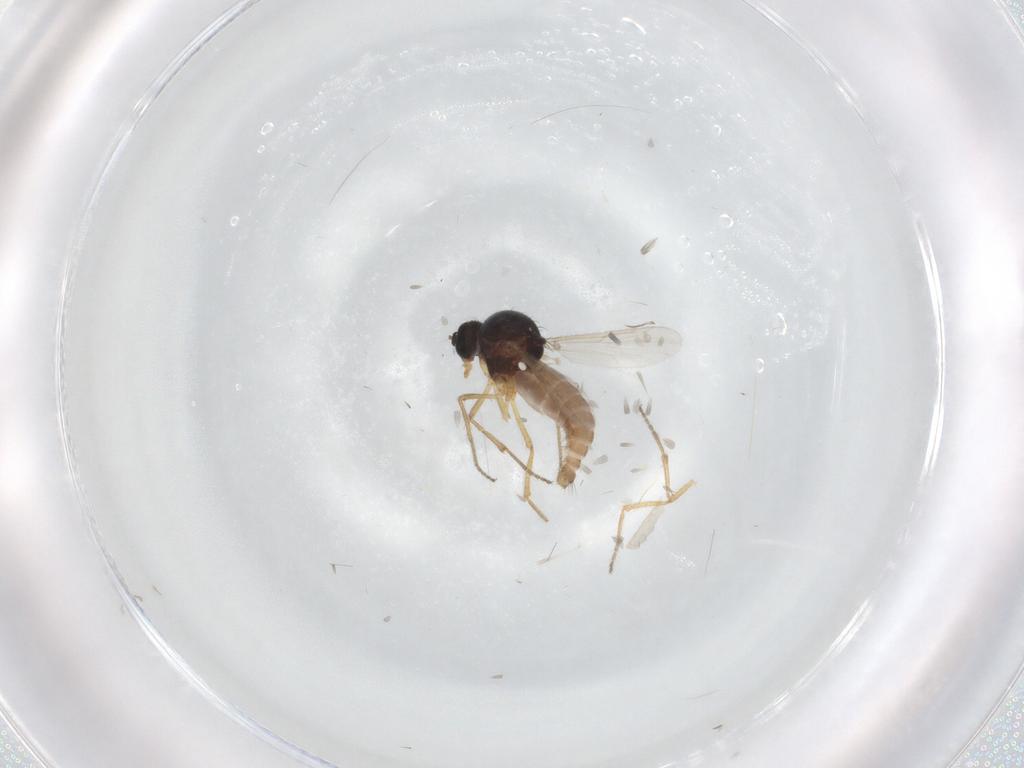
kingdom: Animalia
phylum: Arthropoda
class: Insecta
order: Diptera
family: Ceratopogonidae
